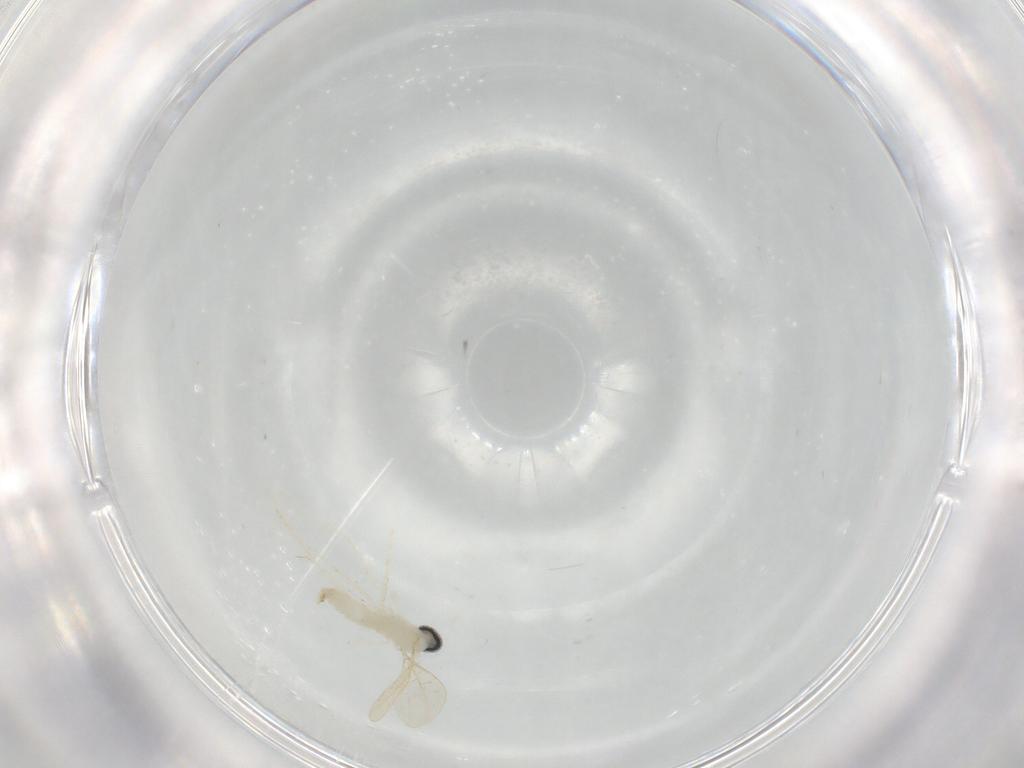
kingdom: Animalia
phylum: Arthropoda
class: Insecta
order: Diptera
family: Cecidomyiidae
